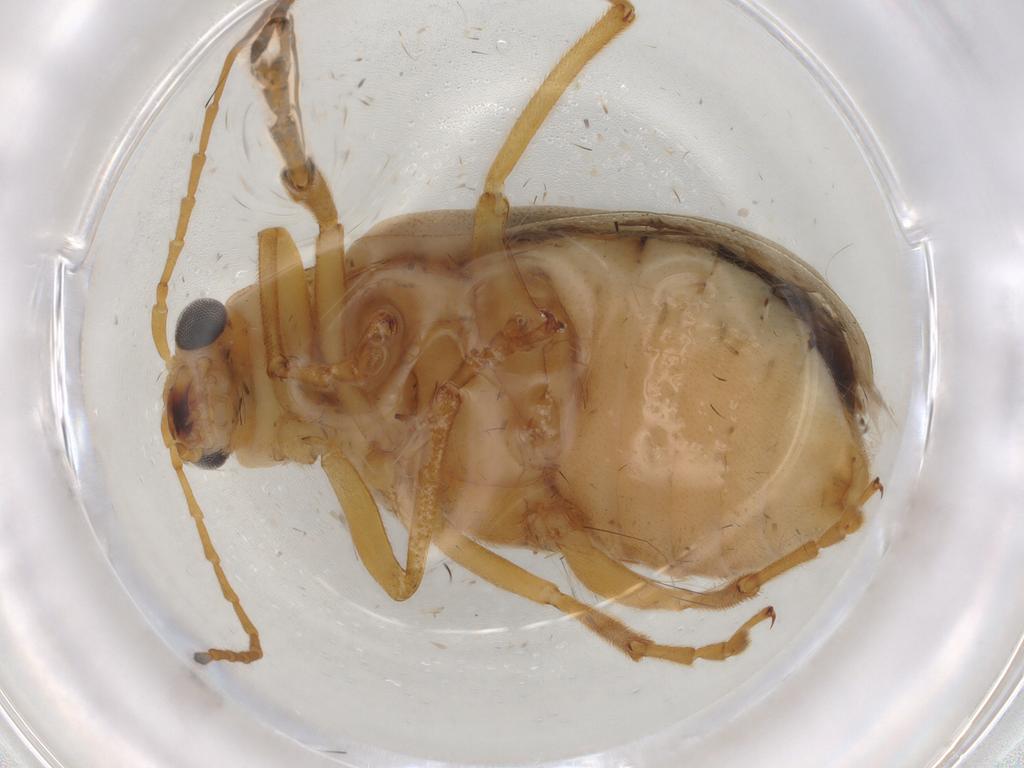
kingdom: Animalia
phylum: Arthropoda
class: Insecta
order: Coleoptera
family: Chrysomelidae
